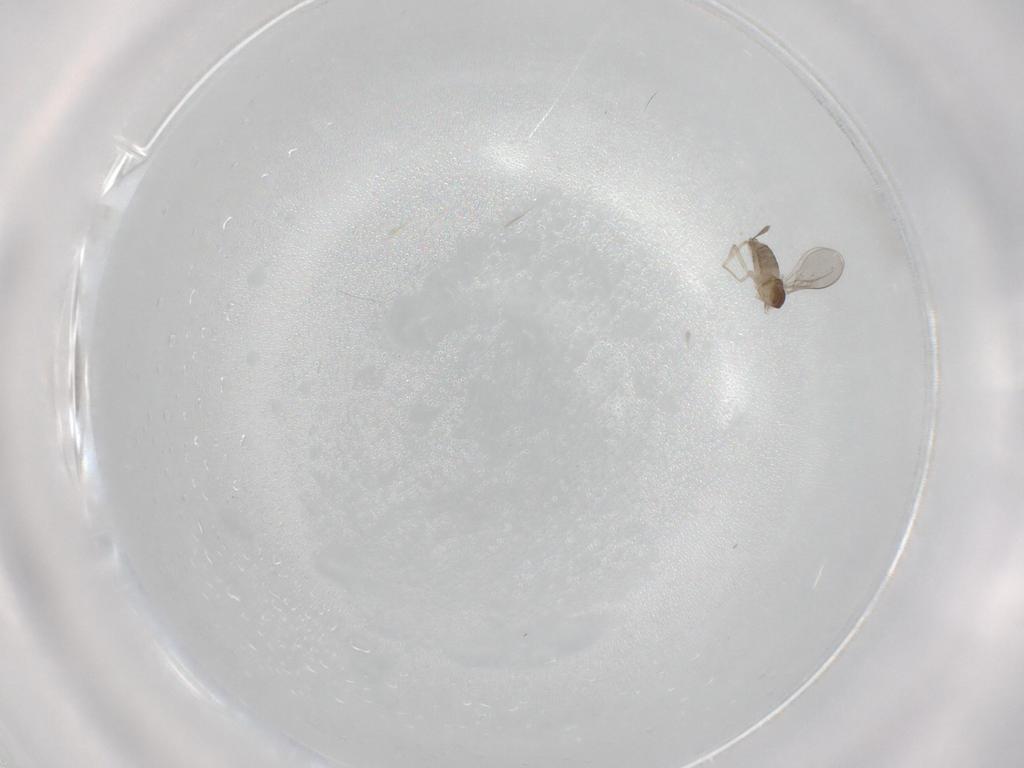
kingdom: Animalia
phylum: Arthropoda
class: Insecta
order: Diptera
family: Cecidomyiidae
